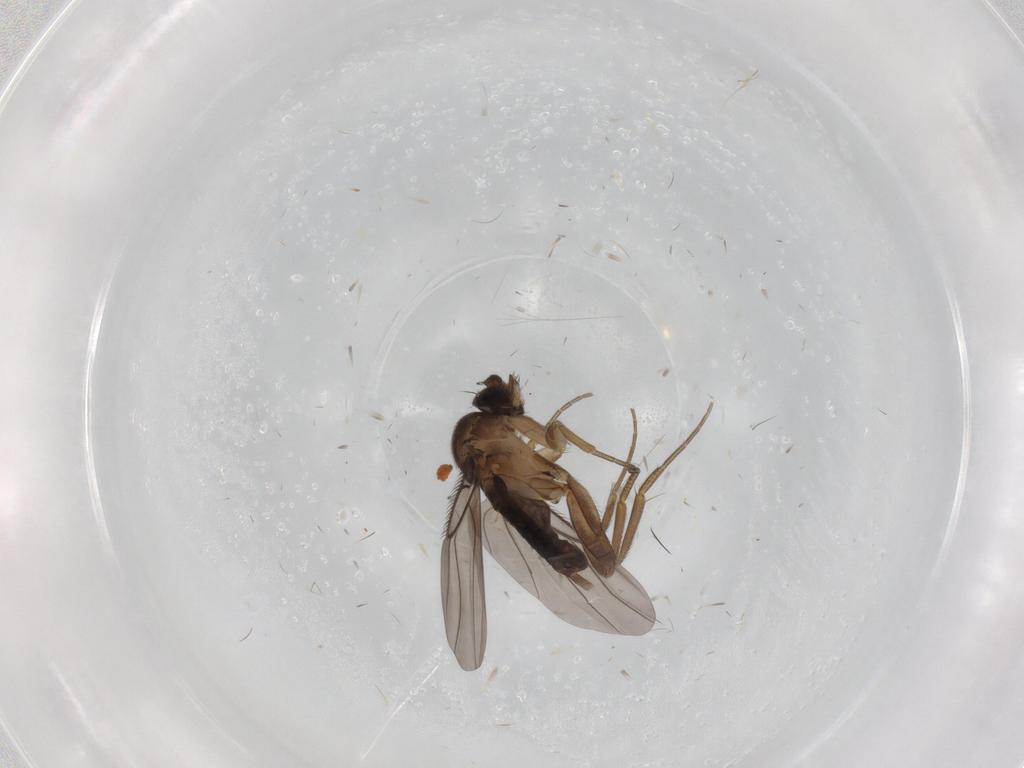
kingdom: Animalia
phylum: Arthropoda
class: Insecta
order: Diptera
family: Phoridae
